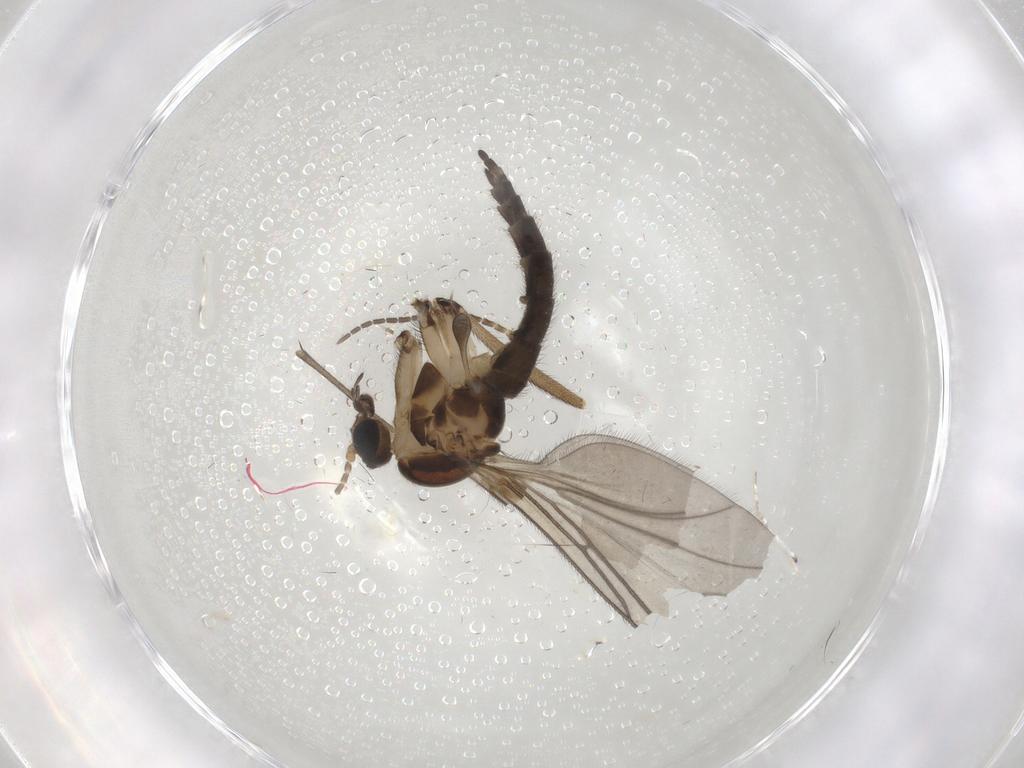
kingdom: Animalia
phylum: Arthropoda
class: Insecta
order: Diptera
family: Sciaridae
